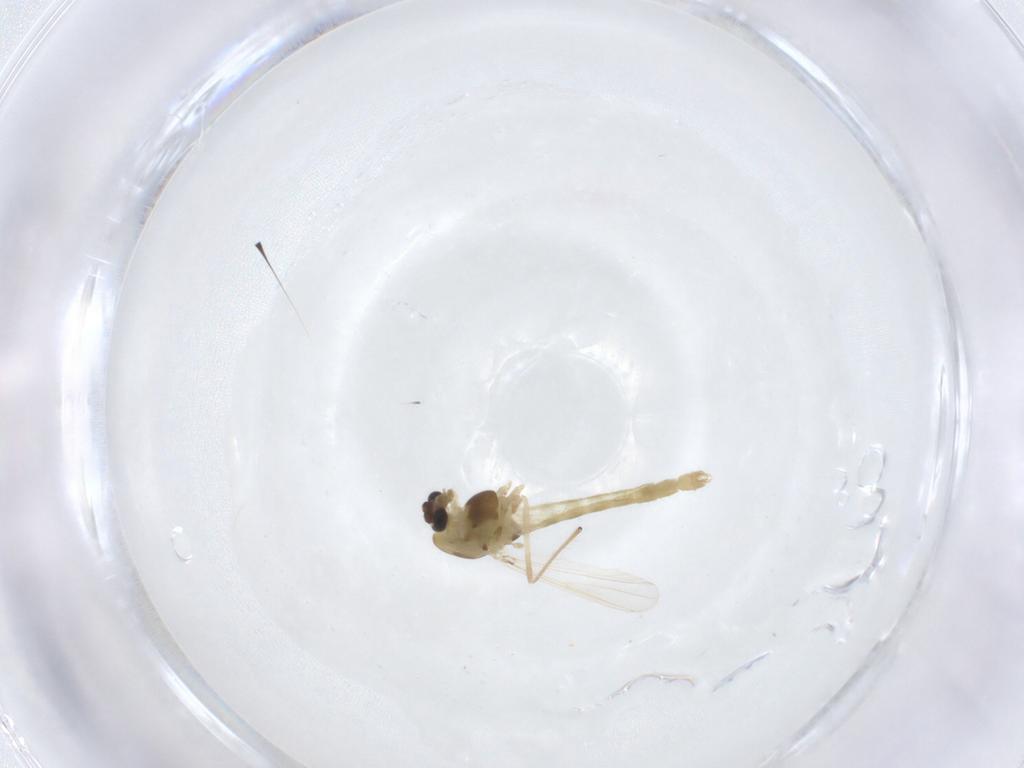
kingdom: Animalia
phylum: Arthropoda
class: Insecta
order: Diptera
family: Chironomidae
